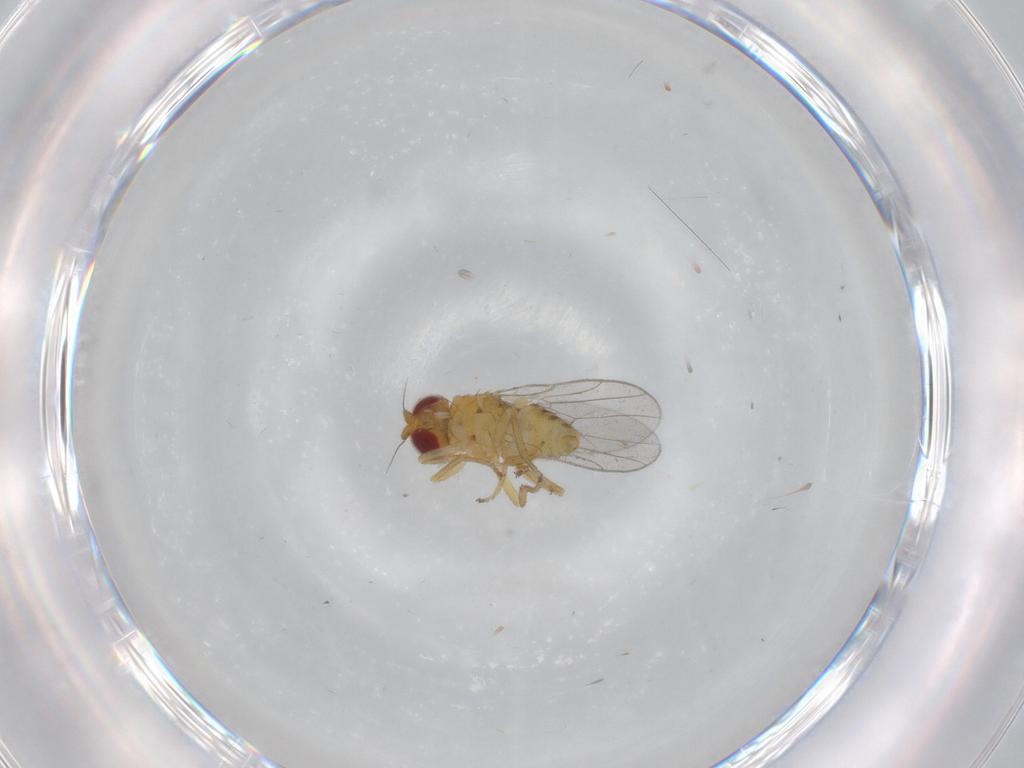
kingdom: Animalia
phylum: Arthropoda
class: Insecta
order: Diptera
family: Chloropidae
